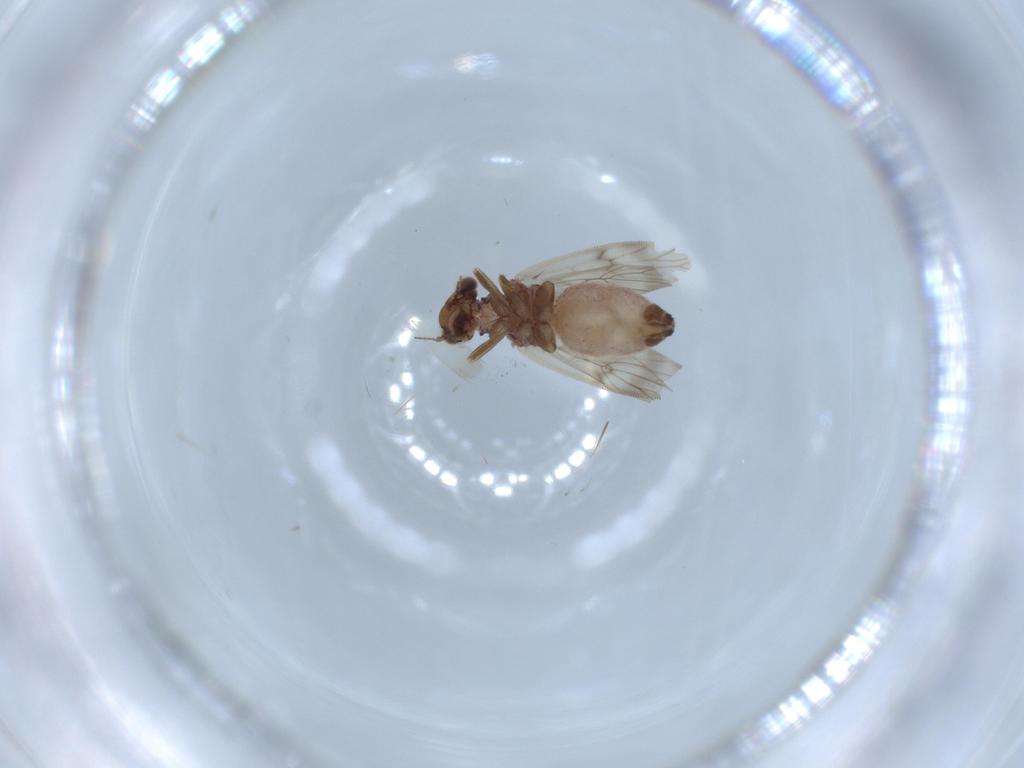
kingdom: Animalia
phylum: Arthropoda
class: Insecta
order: Psocodea
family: Lepidopsocidae
